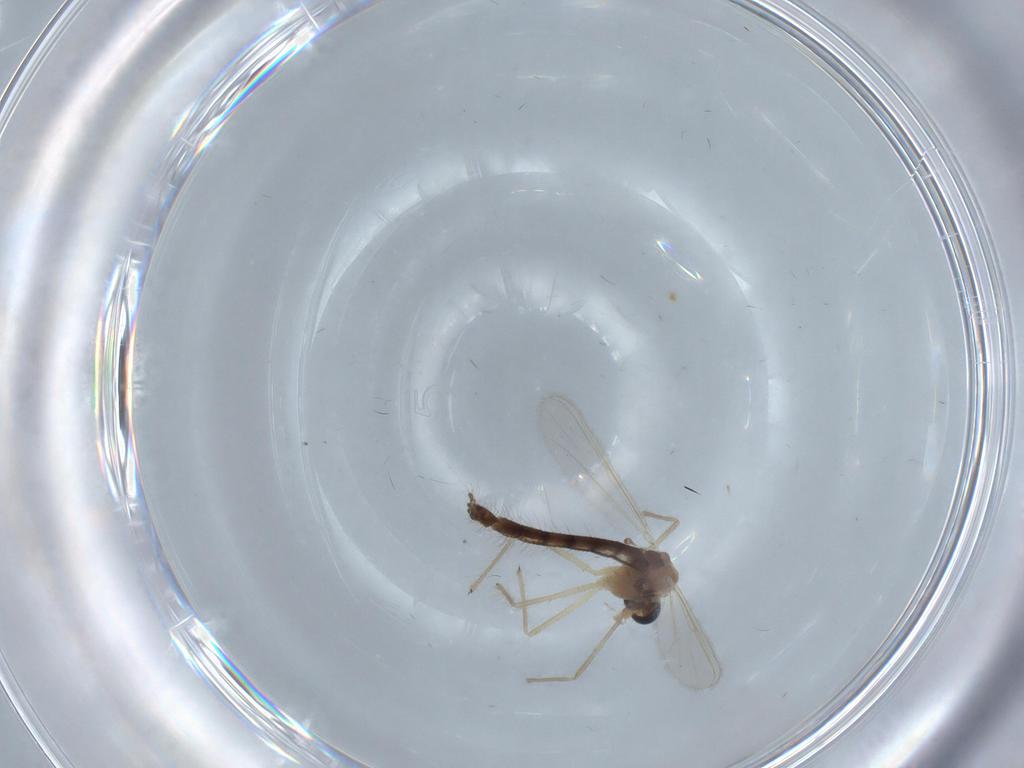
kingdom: Animalia
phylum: Arthropoda
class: Insecta
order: Diptera
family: Chironomidae
